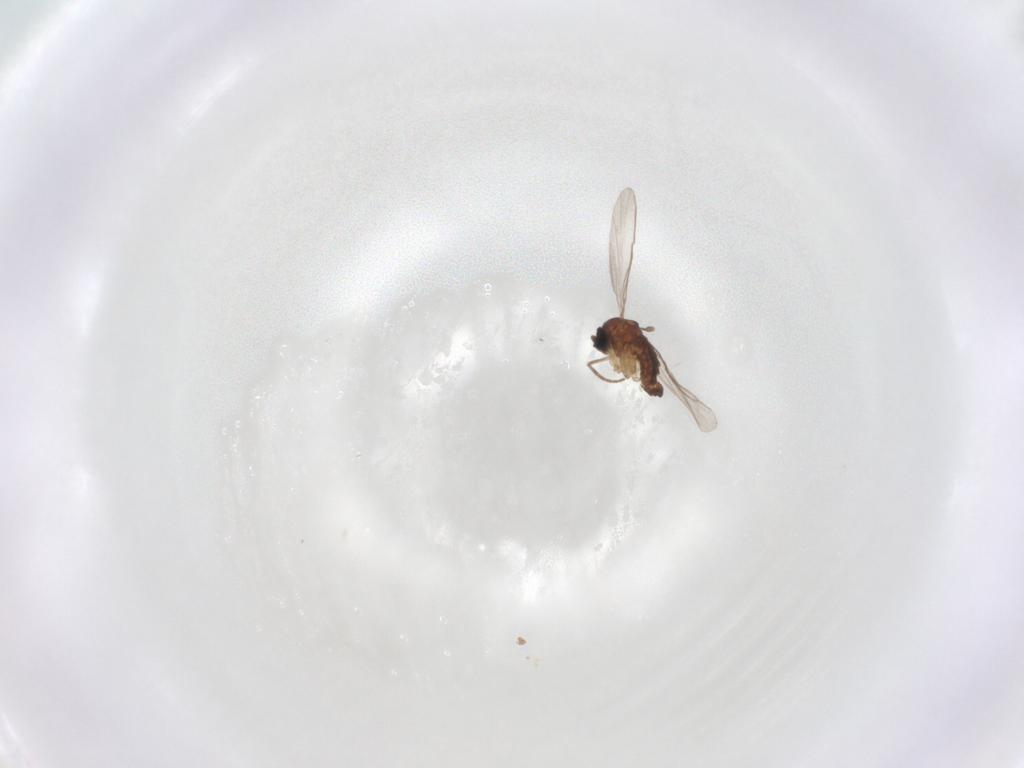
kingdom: Animalia
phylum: Arthropoda
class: Insecta
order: Diptera
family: Sciaridae
